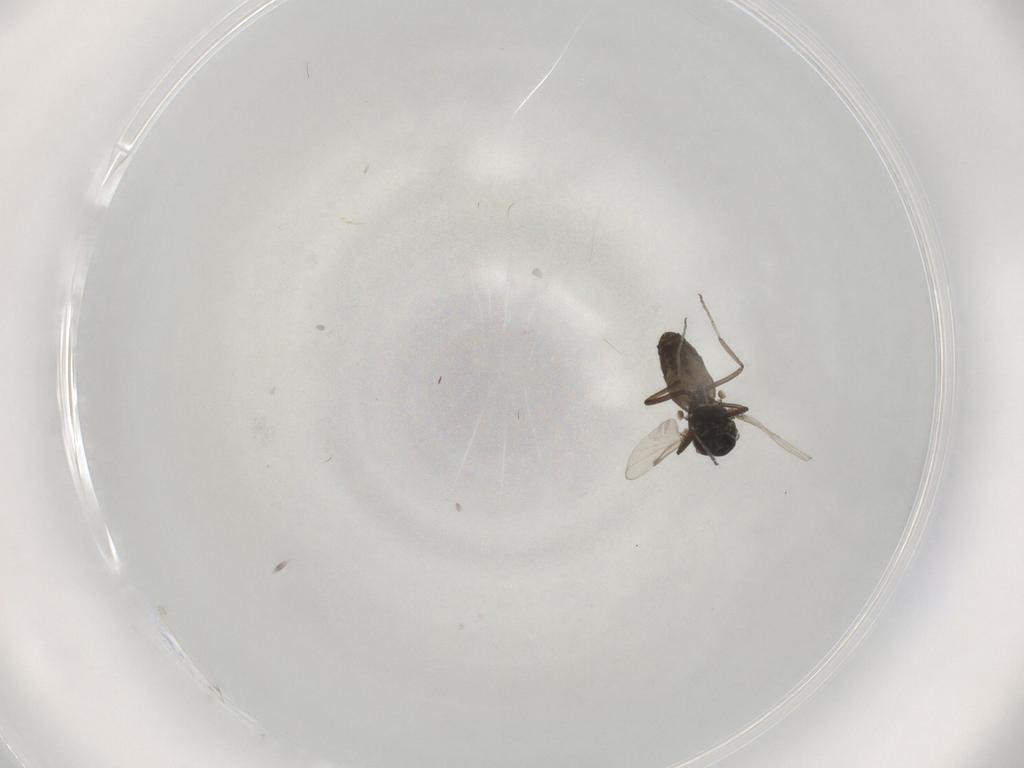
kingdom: Animalia
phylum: Arthropoda
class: Insecta
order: Diptera
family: Ceratopogonidae
